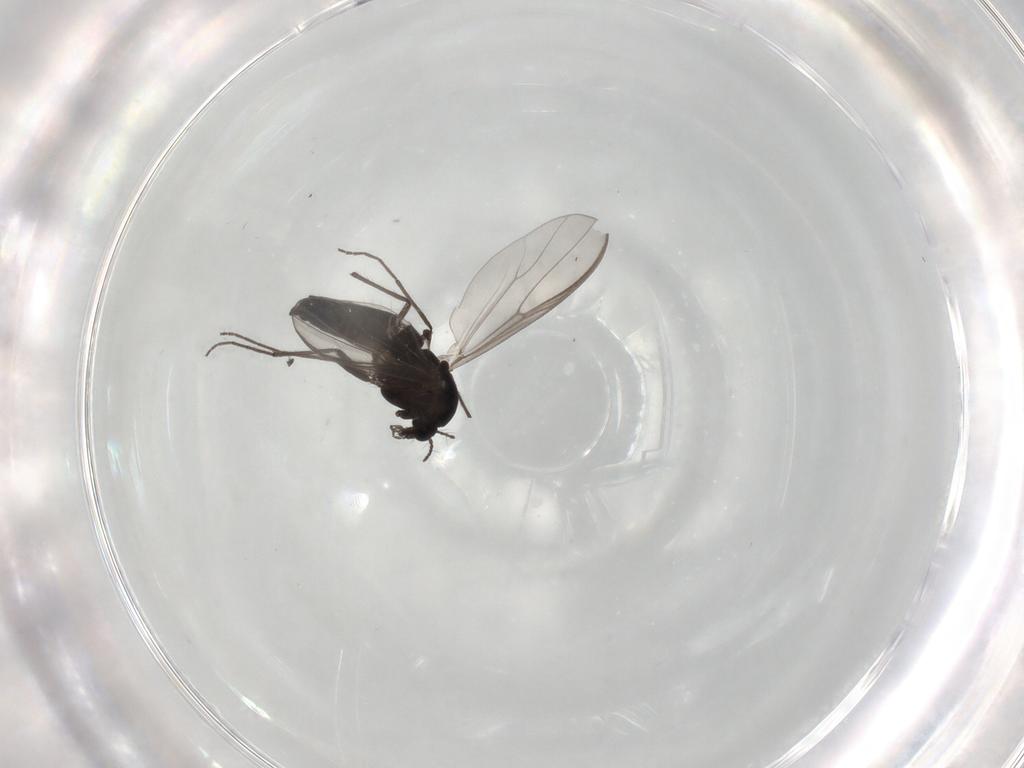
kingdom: Animalia
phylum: Arthropoda
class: Insecta
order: Diptera
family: Chironomidae
